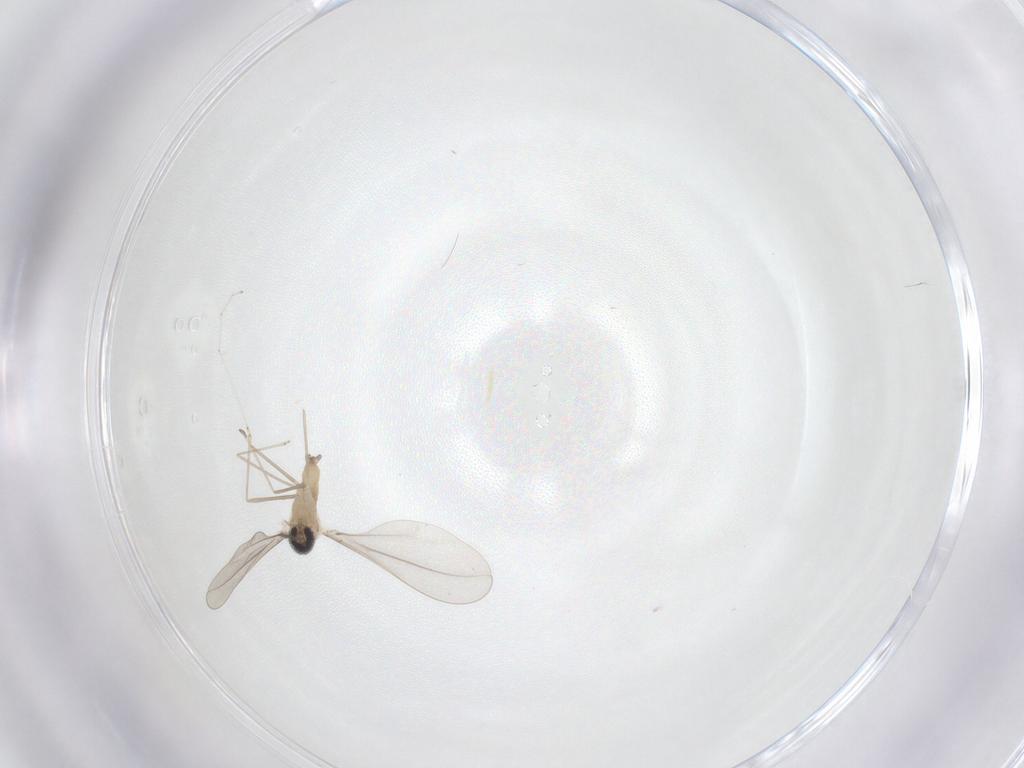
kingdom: Animalia
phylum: Arthropoda
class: Insecta
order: Diptera
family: Cecidomyiidae
